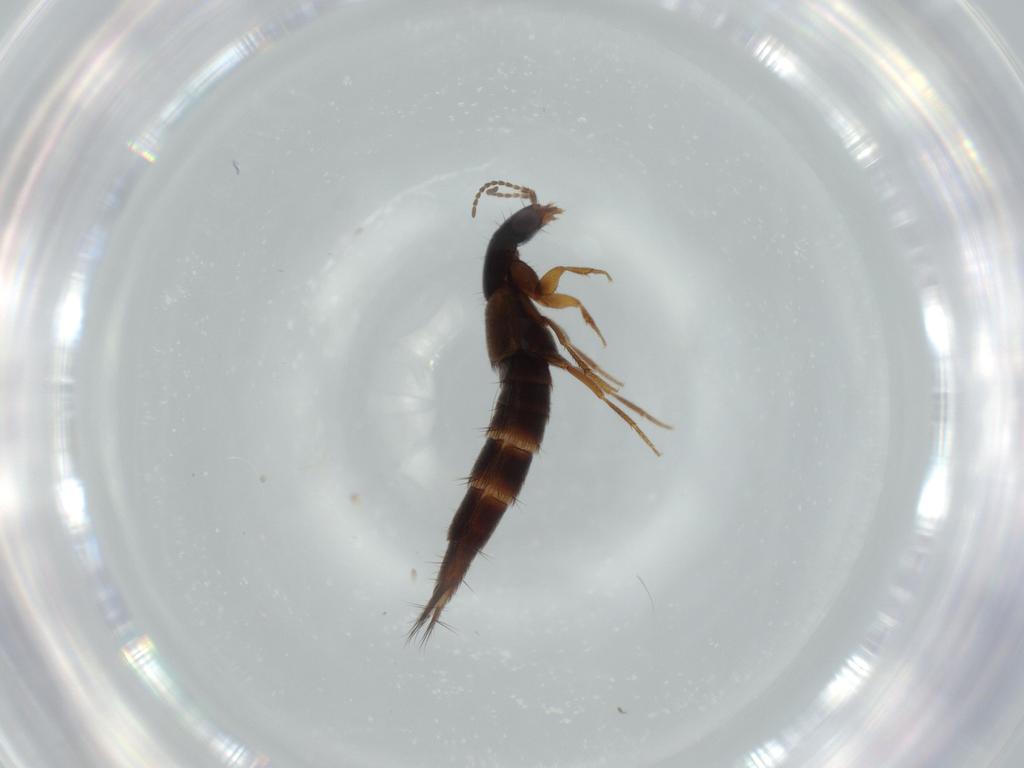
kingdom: Animalia
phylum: Arthropoda
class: Insecta
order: Coleoptera
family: Staphylinidae
